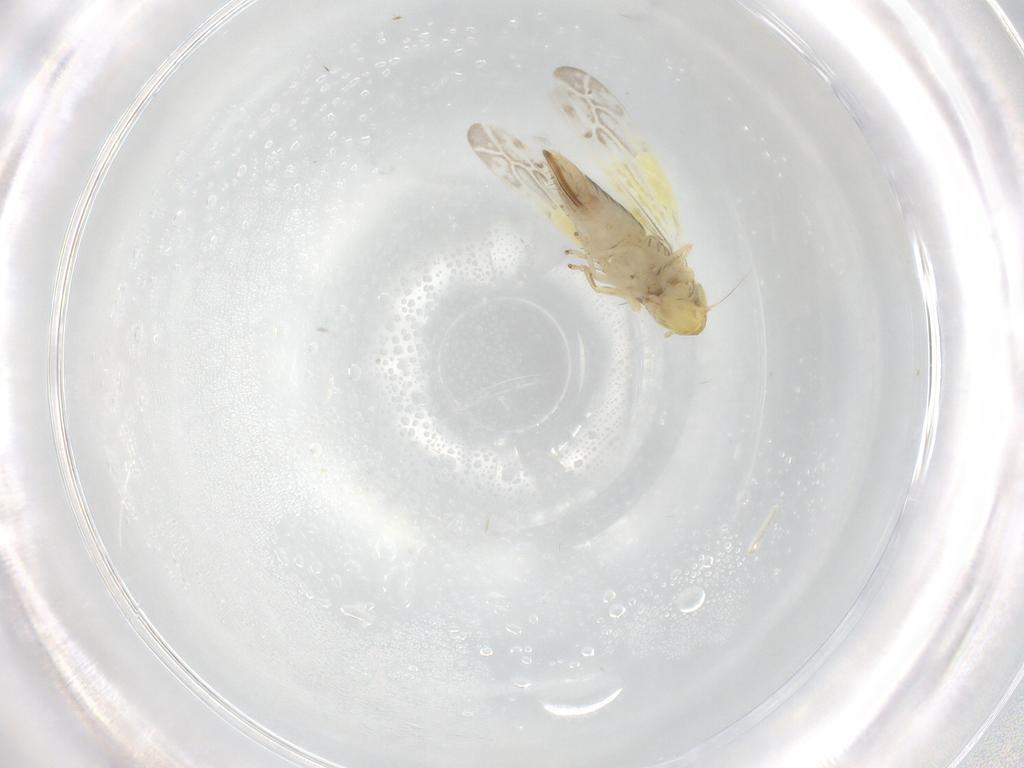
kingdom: Animalia
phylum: Arthropoda
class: Insecta
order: Hemiptera
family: Cicadellidae
